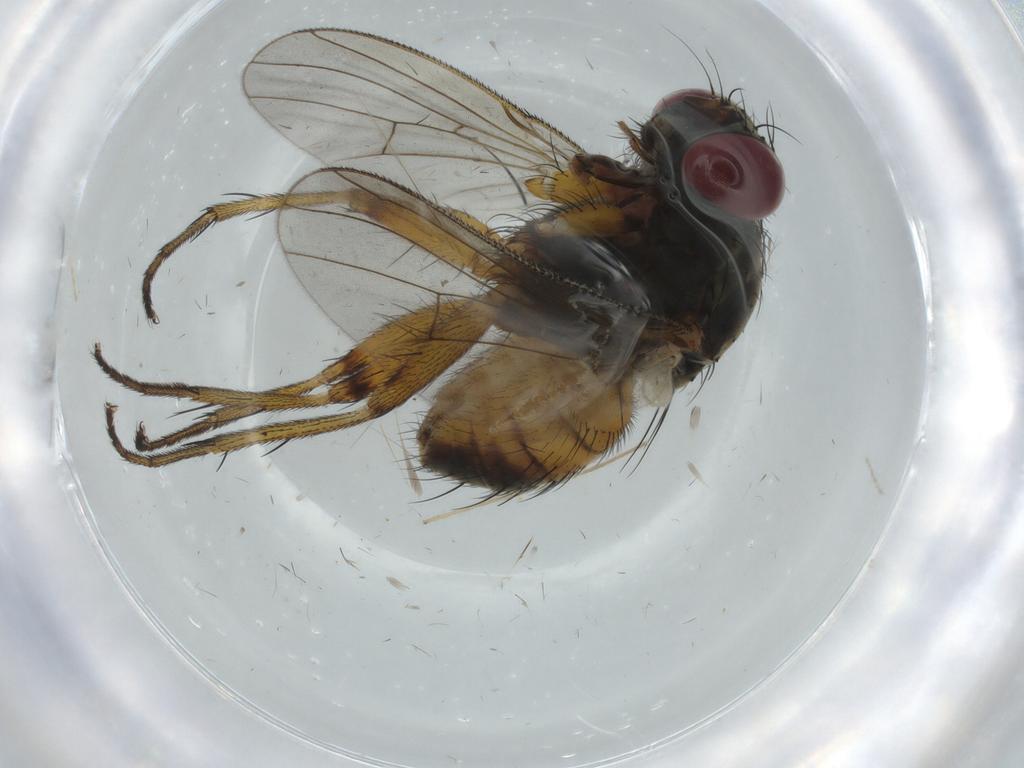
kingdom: Animalia
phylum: Arthropoda
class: Insecta
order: Diptera
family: Muscidae
